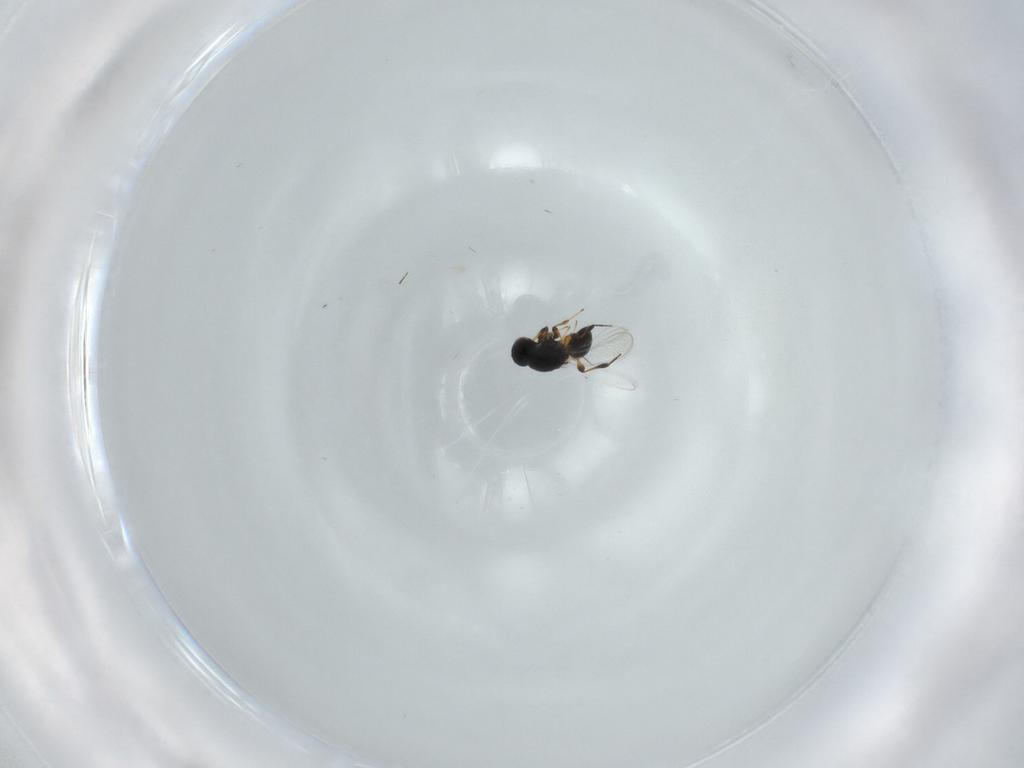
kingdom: Animalia
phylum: Arthropoda
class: Insecta
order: Hymenoptera
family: Platygastridae
